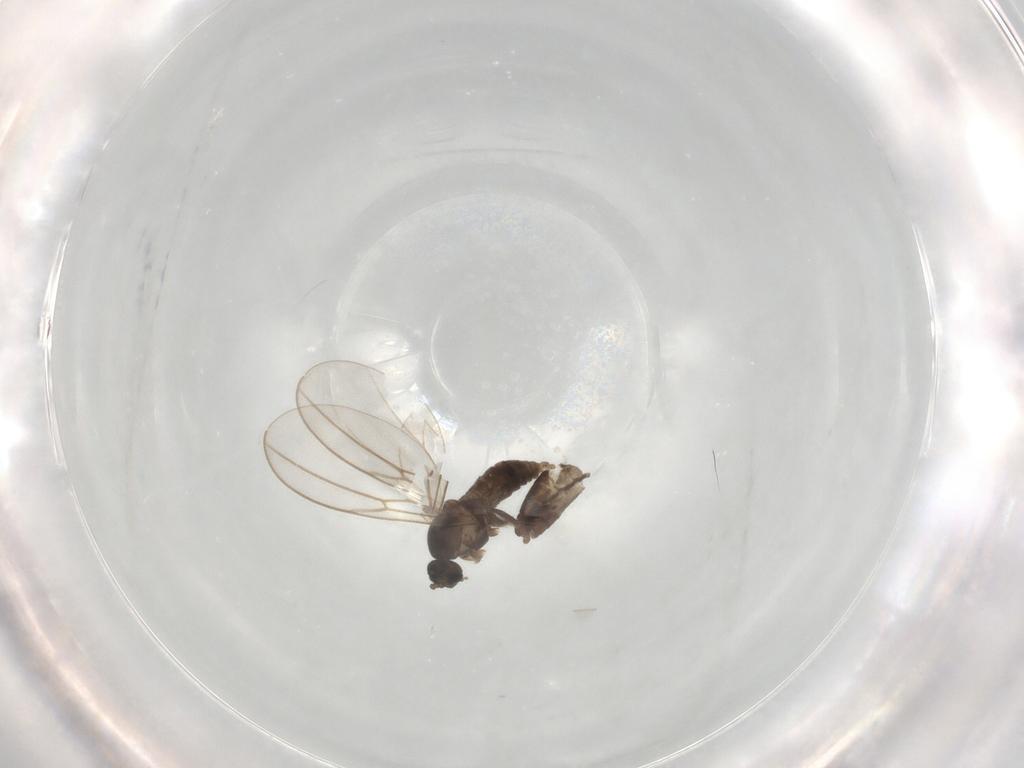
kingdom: Animalia
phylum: Arthropoda
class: Insecta
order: Diptera
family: Chironomidae
